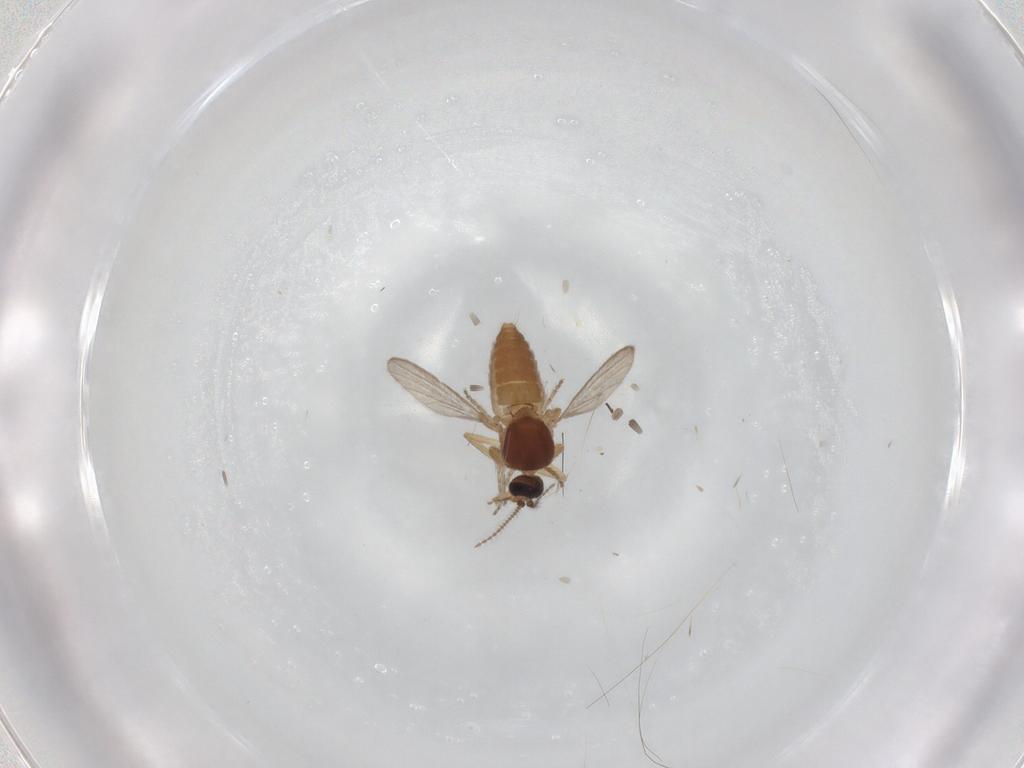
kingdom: Animalia
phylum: Arthropoda
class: Insecta
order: Diptera
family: Ceratopogonidae
